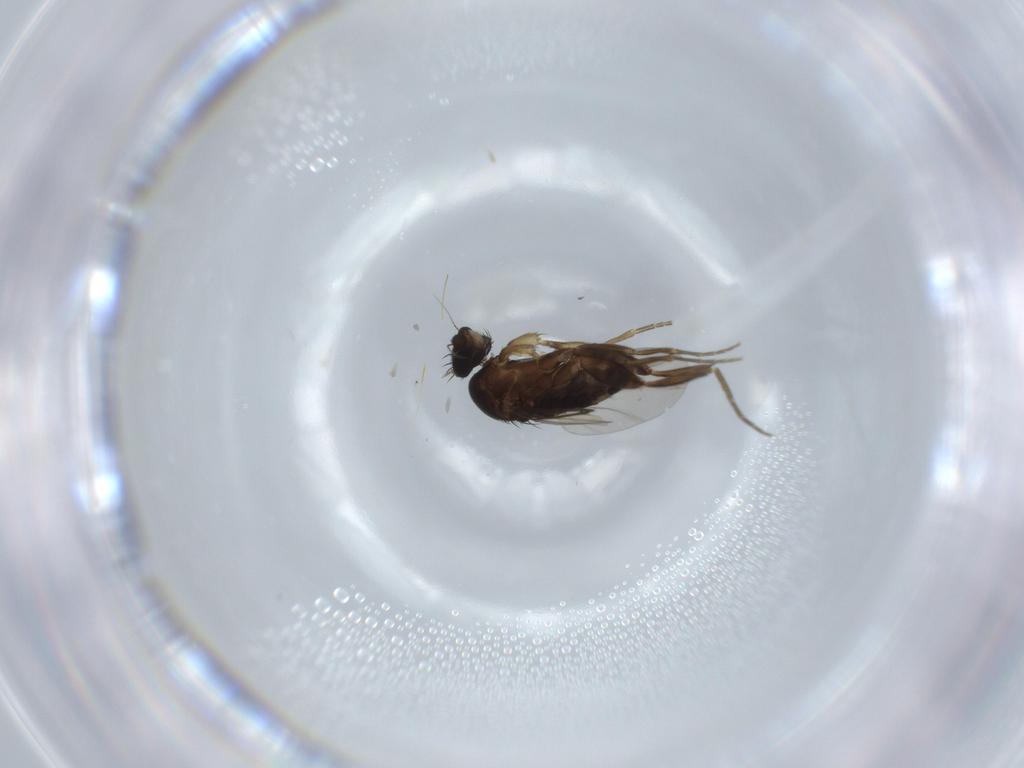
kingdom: Animalia
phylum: Arthropoda
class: Insecta
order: Diptera
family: Phoridae
